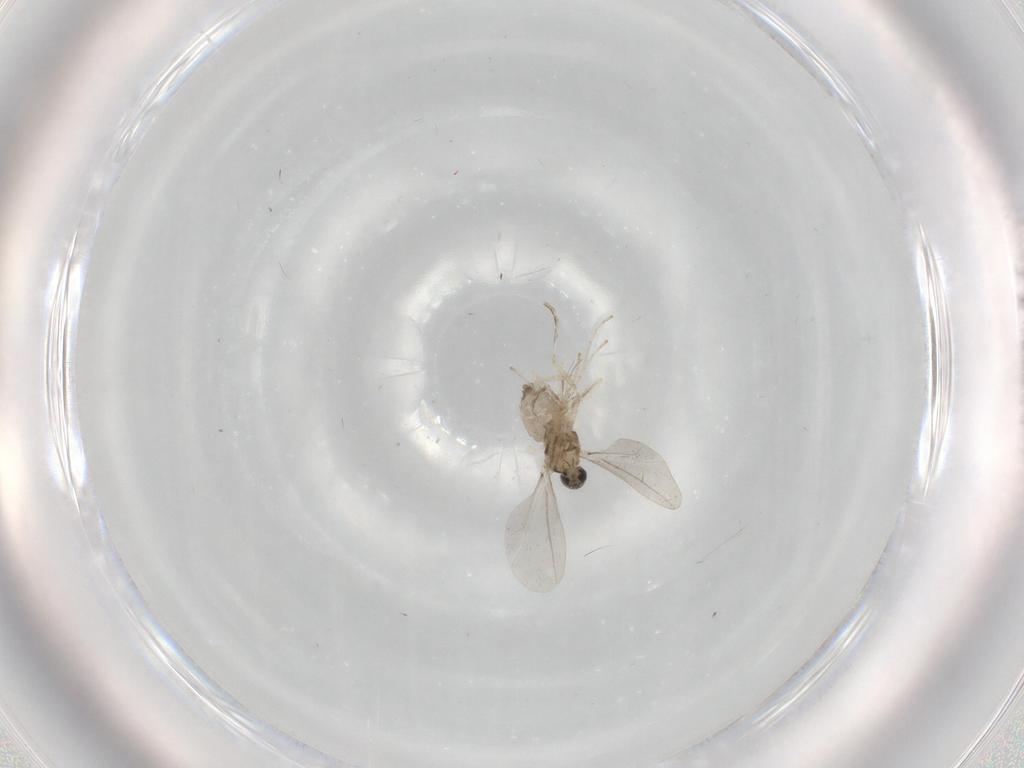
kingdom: Animalia
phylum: Arthropoda
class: Insecta
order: Diptera
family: Cecidomyiidae
